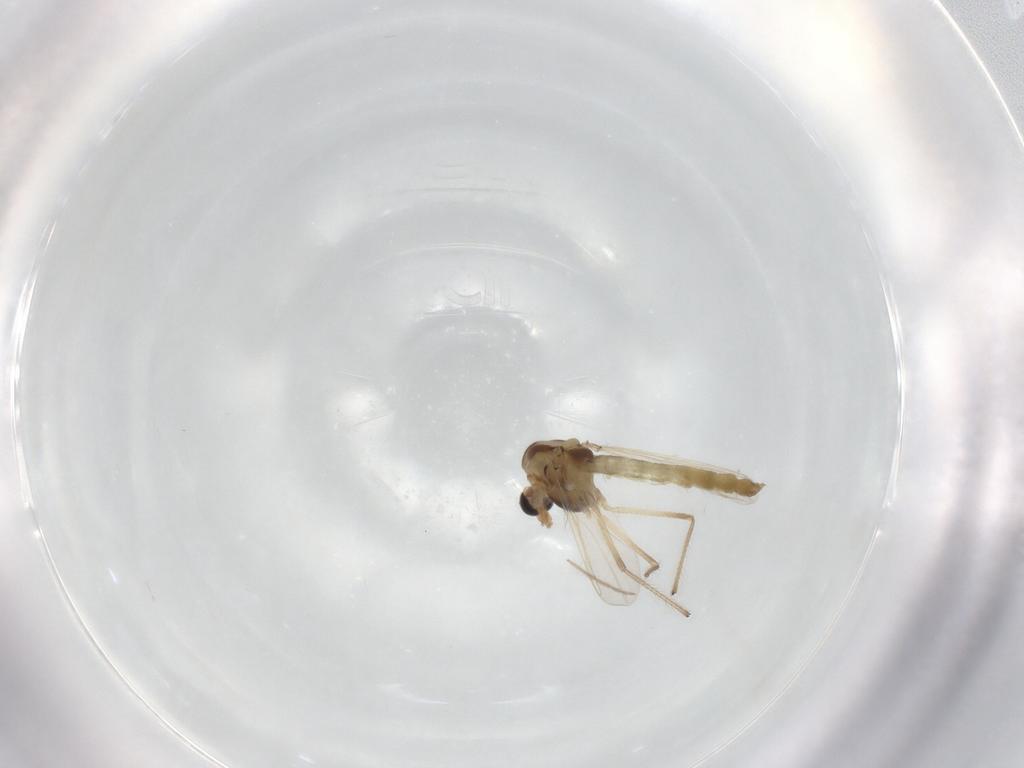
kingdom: Animalia
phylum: Arthropoda
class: Insecta
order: Diptera
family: Chironomidae
